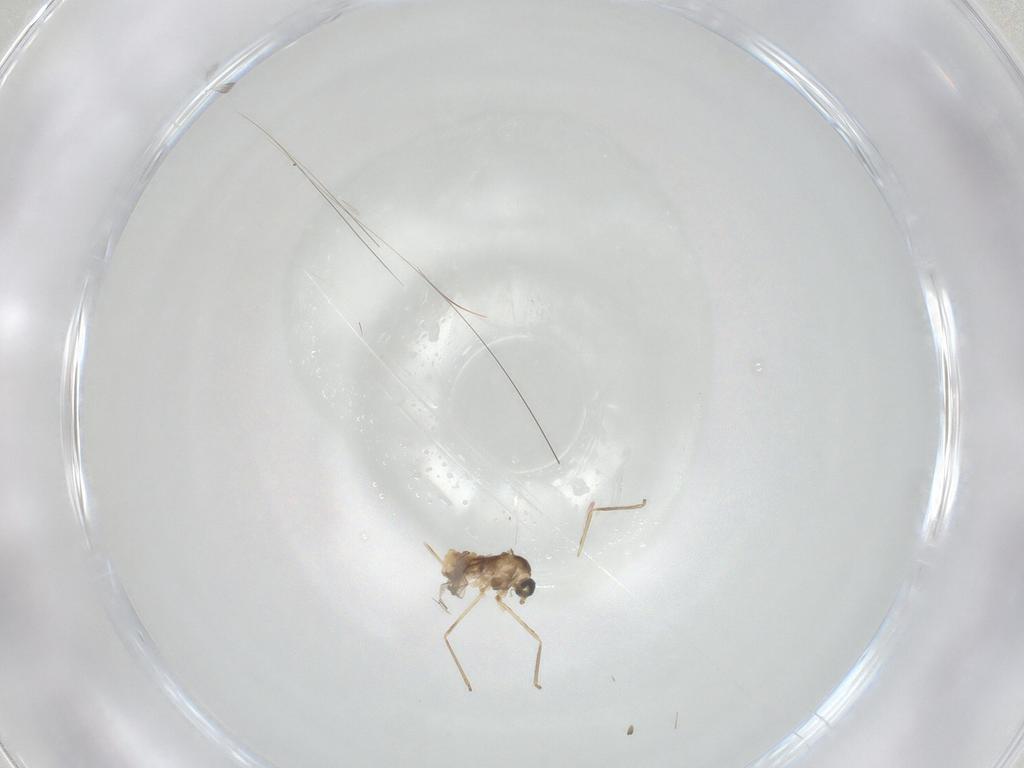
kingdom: Animalia
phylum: Arthropoda
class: Insecta
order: Diptera
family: Cecidomyiidae
